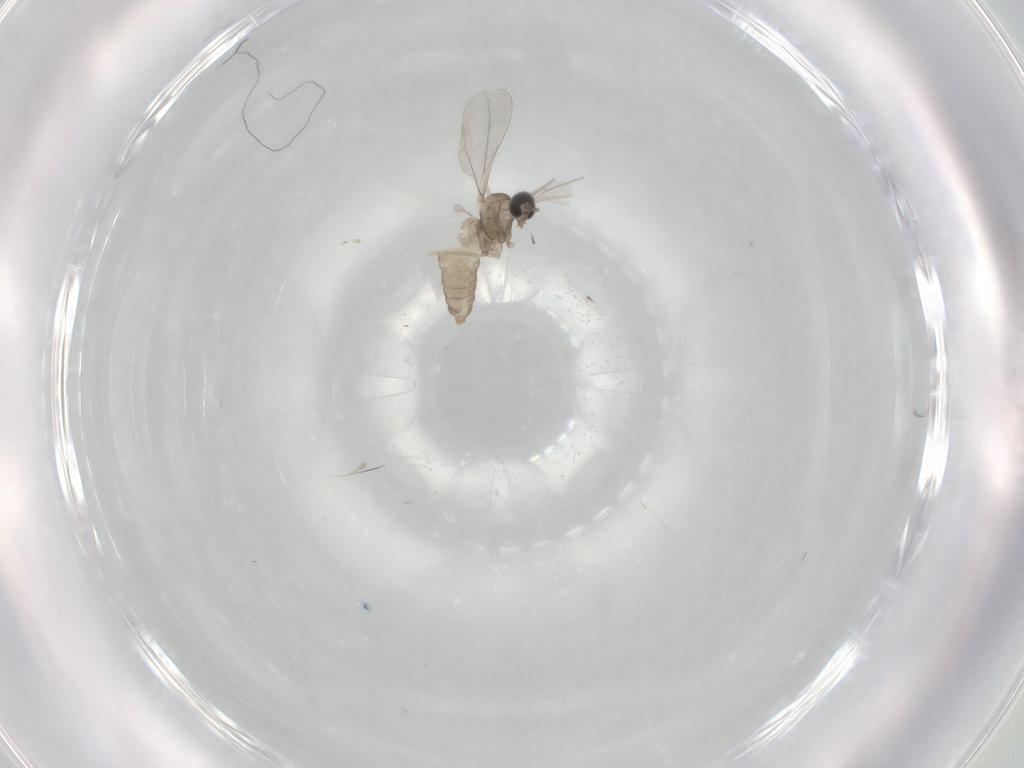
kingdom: Animalia
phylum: Arthropoda
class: Insecta
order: Diptera
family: Cecidomyiidae
